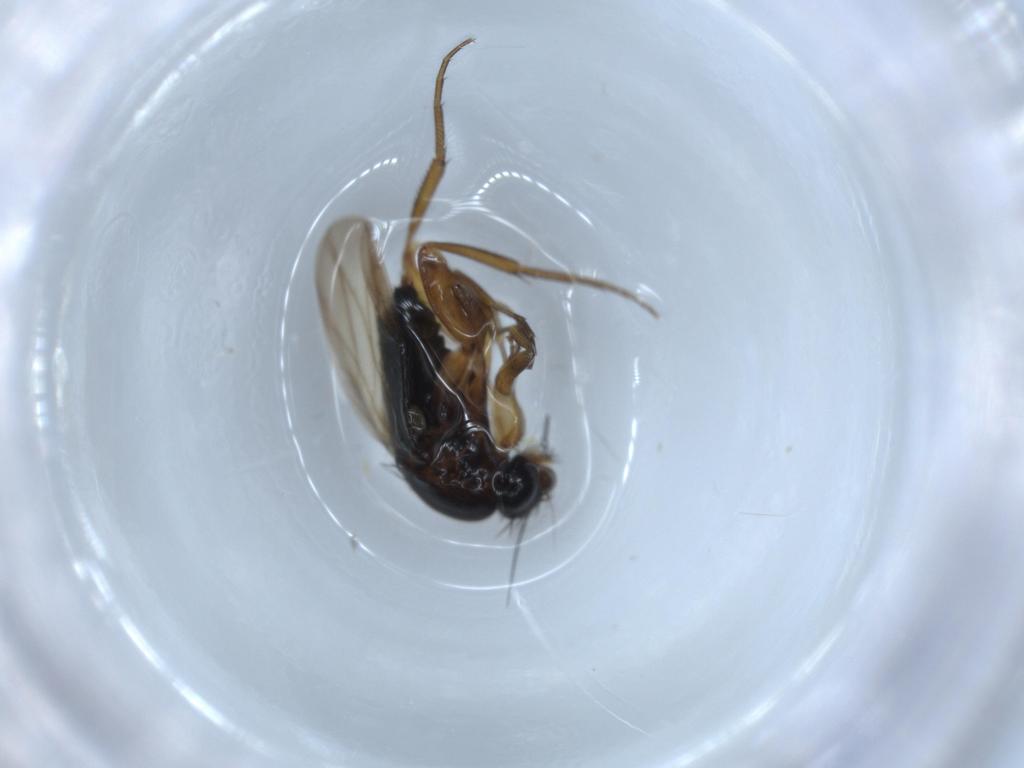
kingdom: Animalia
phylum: Arthropoda
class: Insecta
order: Diptera
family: Phoridae
